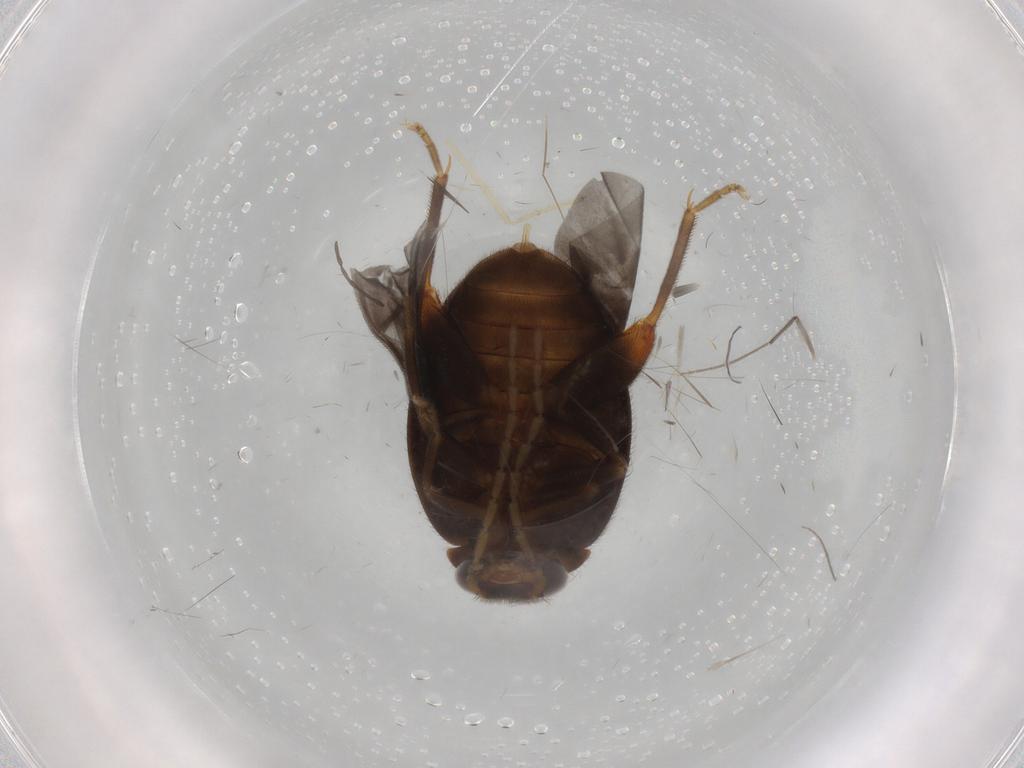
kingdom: Animalia
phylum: Arthropoda
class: Insecta
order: Coleoptera
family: Scirtidae
